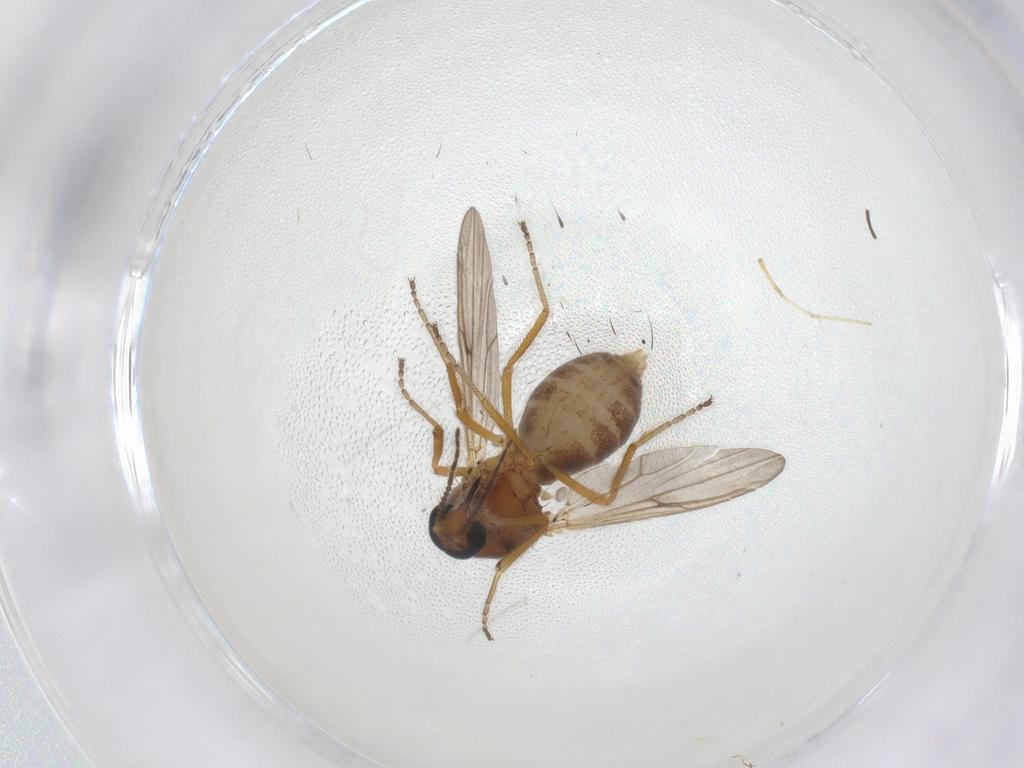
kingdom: Animalia
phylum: Arthropoda
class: Insecta
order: Diptera
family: Ceratopogonidae
